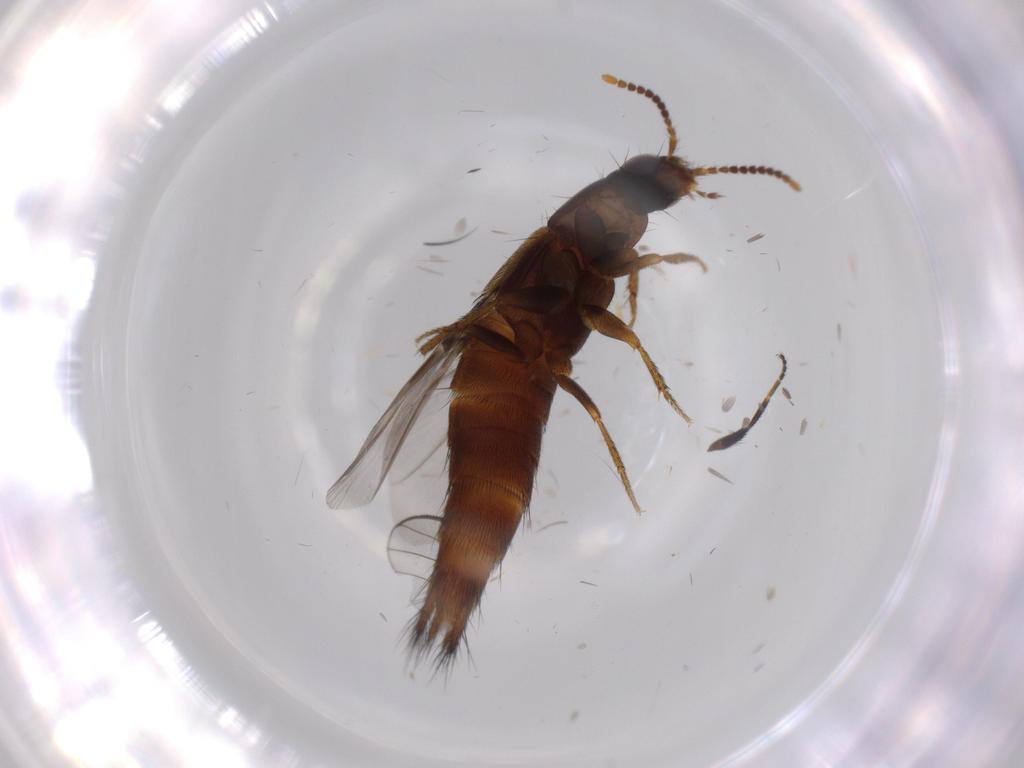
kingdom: Animalia
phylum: Arthropoda
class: Insecta
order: Coleoptera
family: Staphylinidae
